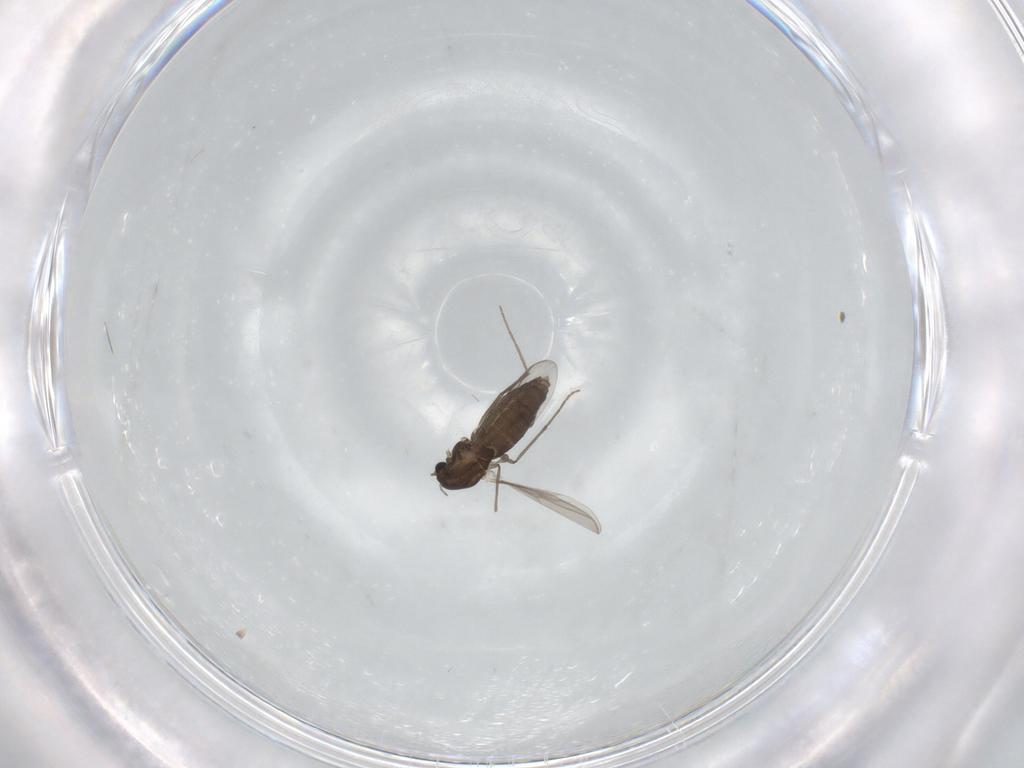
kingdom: Animalia
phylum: Arthropoda
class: Insecta
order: Diptera
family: Chironomidae
